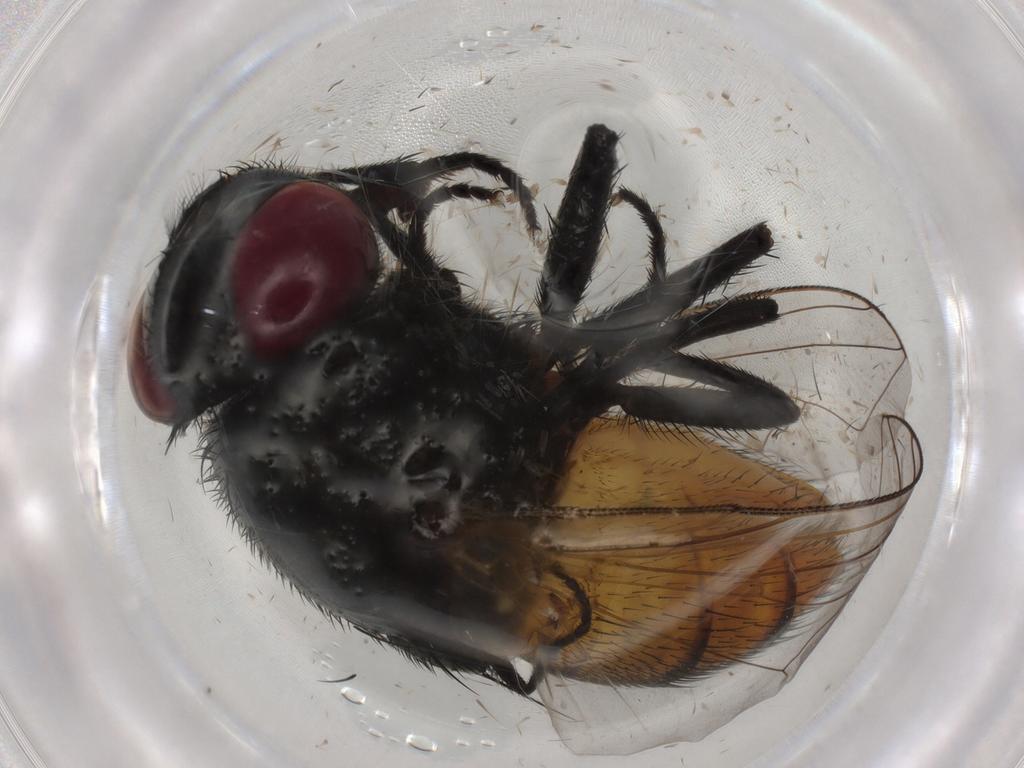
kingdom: Animalia
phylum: Arthropoda
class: Insecta
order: Diptera
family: Chironomidae
